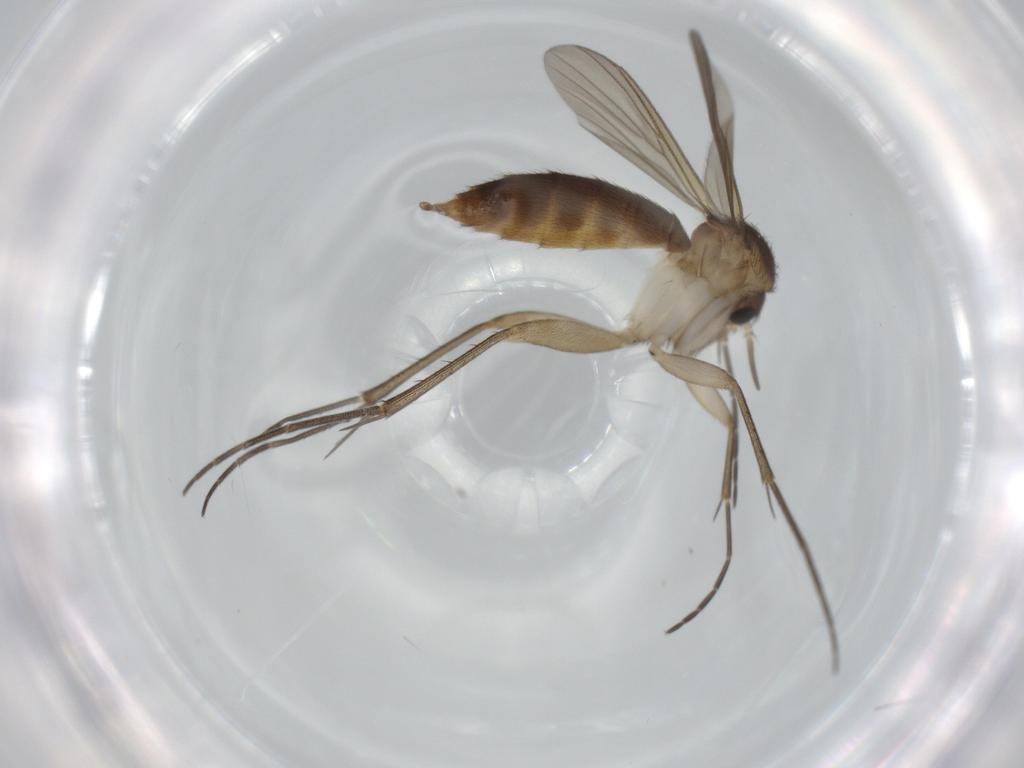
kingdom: Animalia
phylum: Arthropoda
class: Insecta
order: Diptera
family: Mycetophilidae
